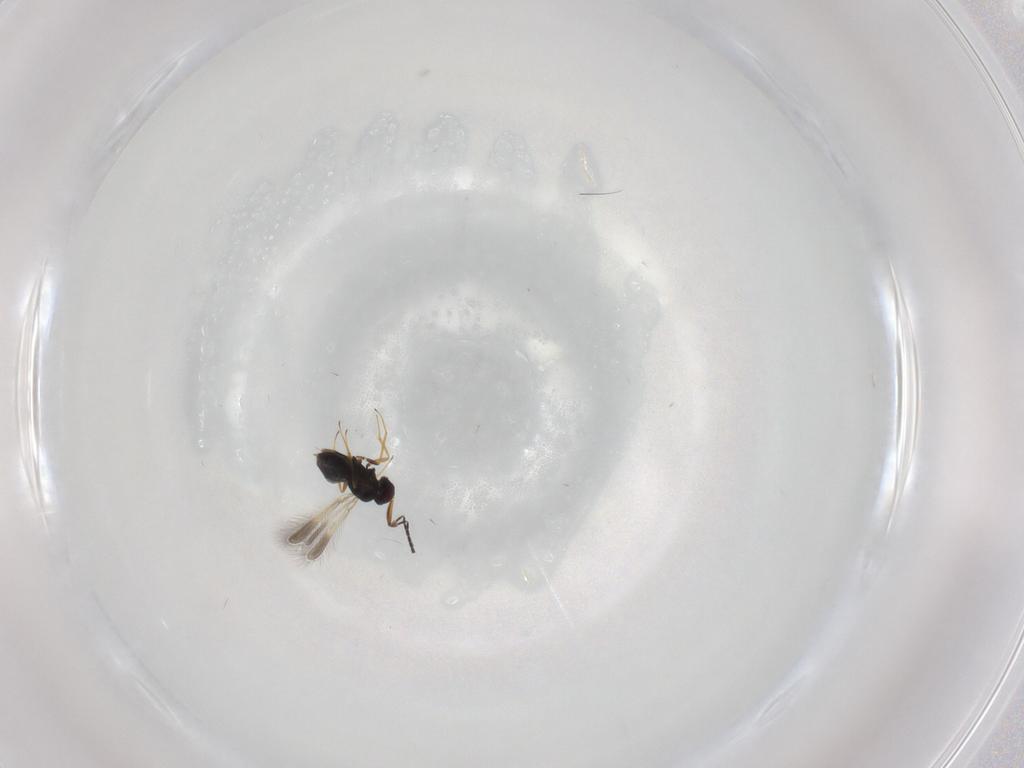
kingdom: Animalia
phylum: Arthropoda
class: Insecta
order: Hymenoptera
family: Mymaridae
